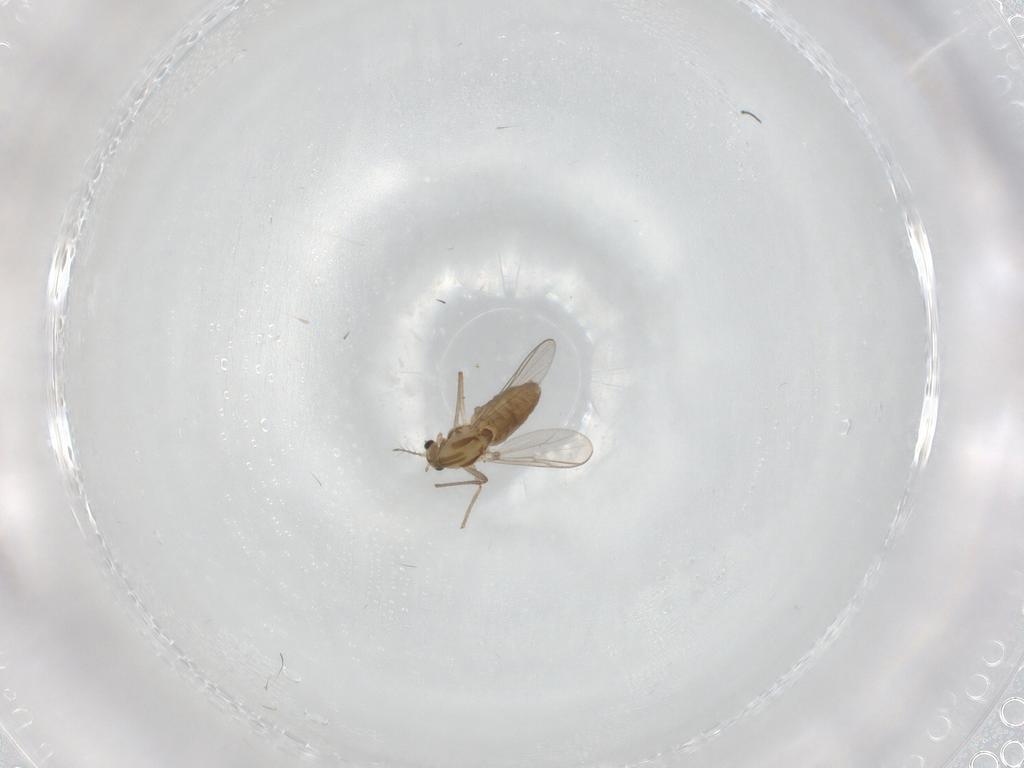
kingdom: Animalia
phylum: Arthropoda
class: Insecta
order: Diptera
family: Chironomidae
